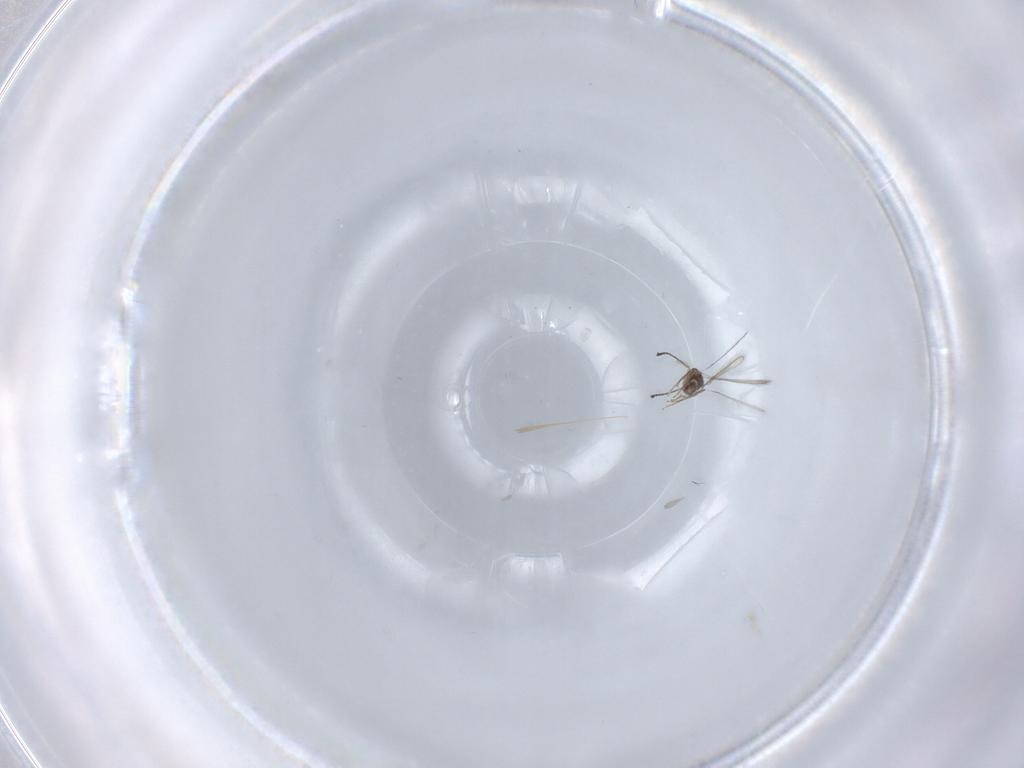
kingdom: Animalia
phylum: Arthropoda
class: Insecta
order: Hymenoptera
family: Mymaridae
